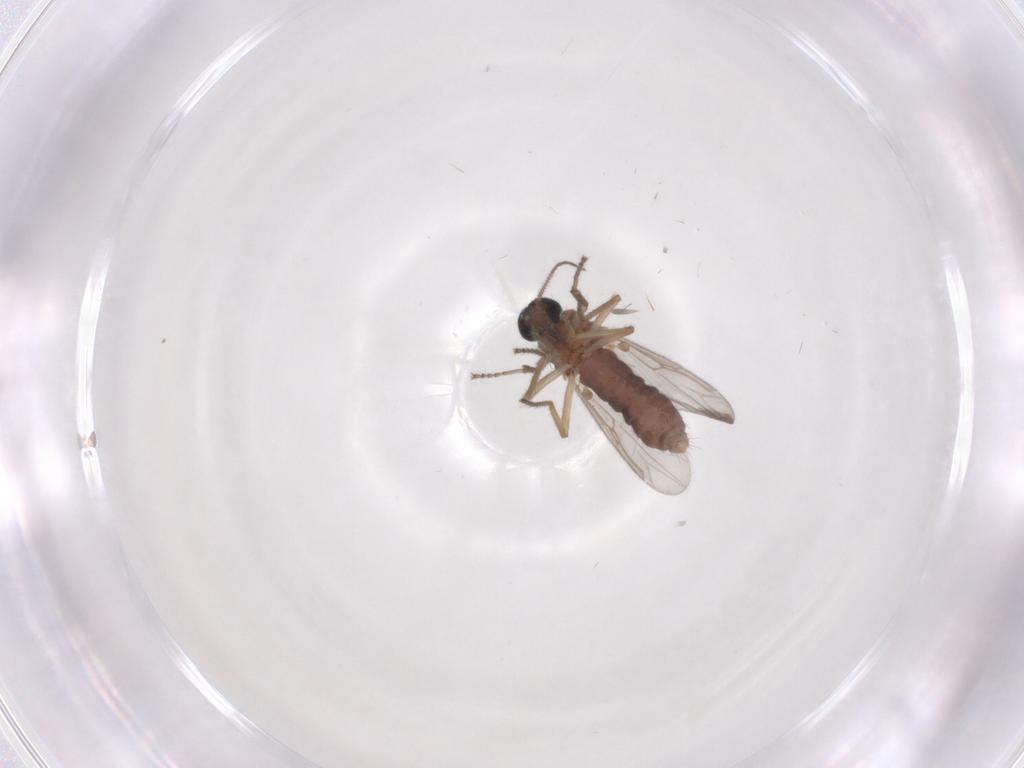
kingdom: Animalia
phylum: Arthropoda
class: Insecta
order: Diptera
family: Ceratopogonidae
